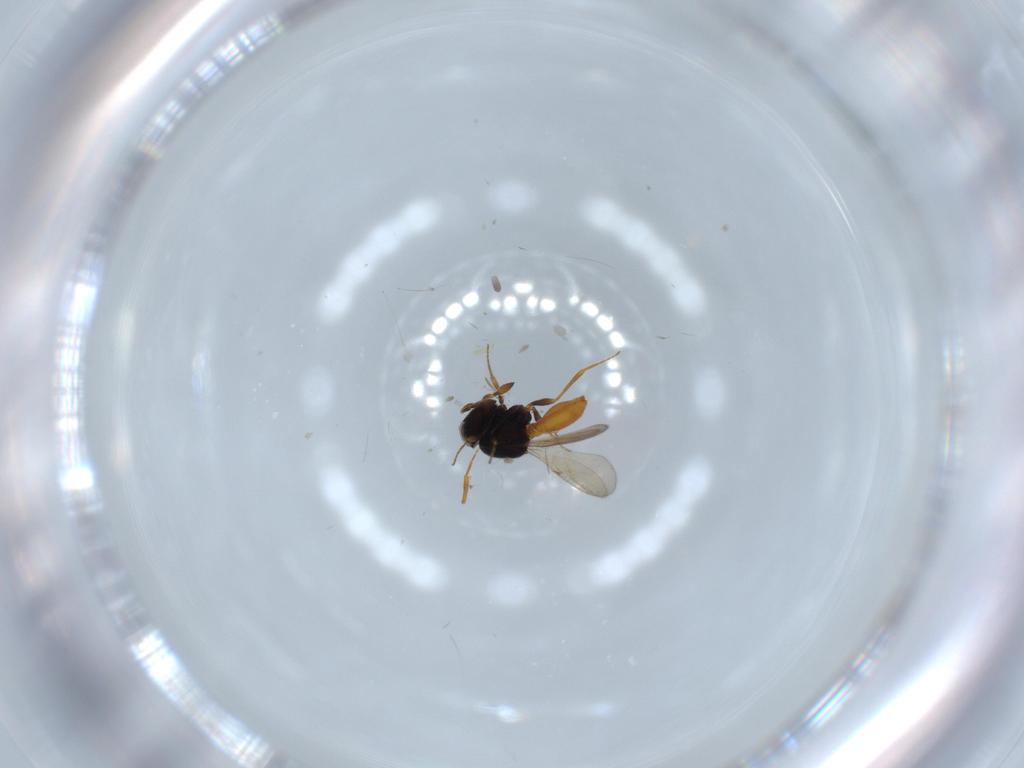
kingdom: Animalia
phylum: Arthropoda
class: Insecta
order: Hymenoptera
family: Scelionidae
